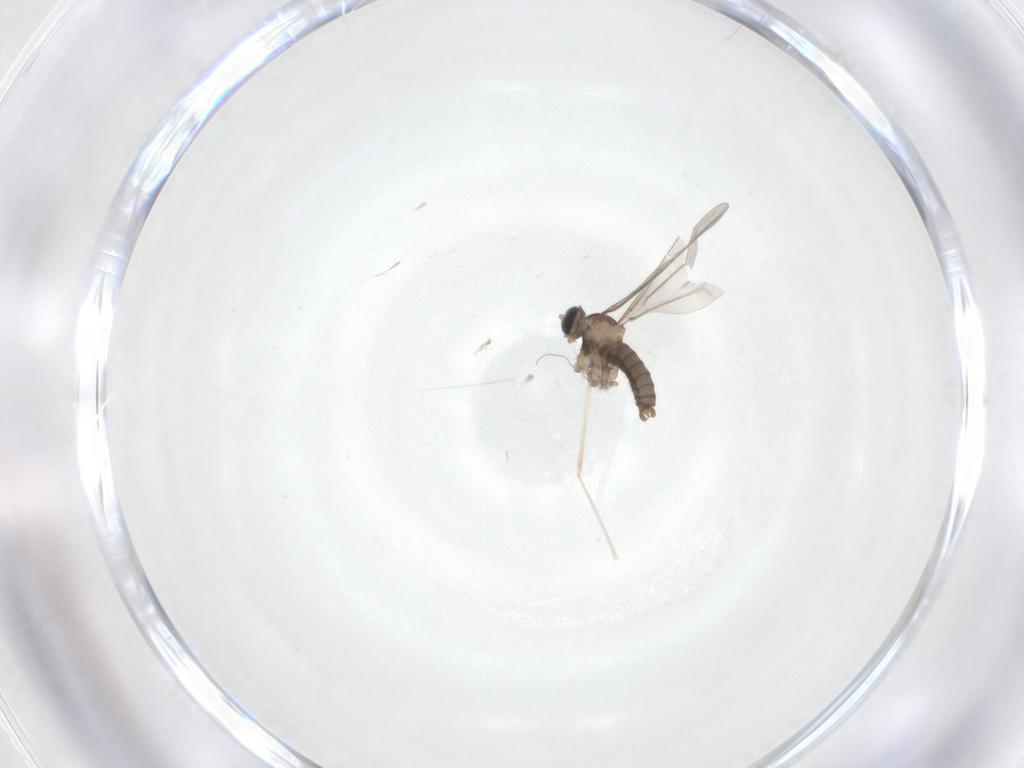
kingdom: Animalia
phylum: Arthropoda
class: Insecta
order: Diptera
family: Cecidomyiidae
